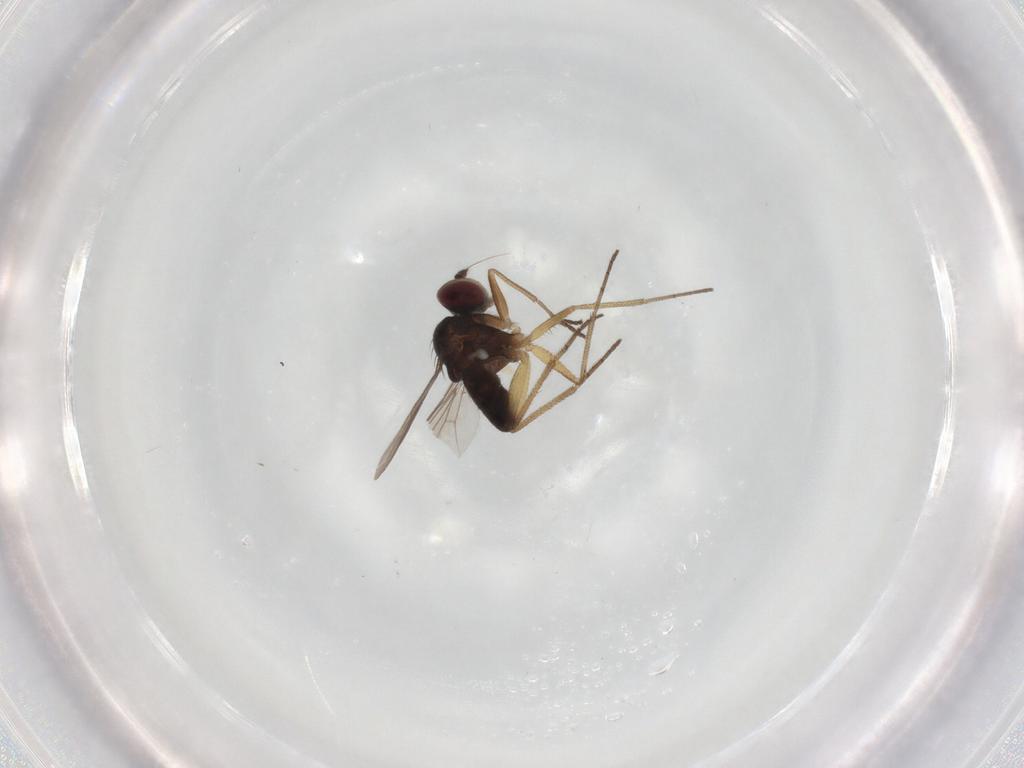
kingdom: Animalia
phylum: Arthropoda
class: Insecta
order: Diptera
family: Dolichopodidae
